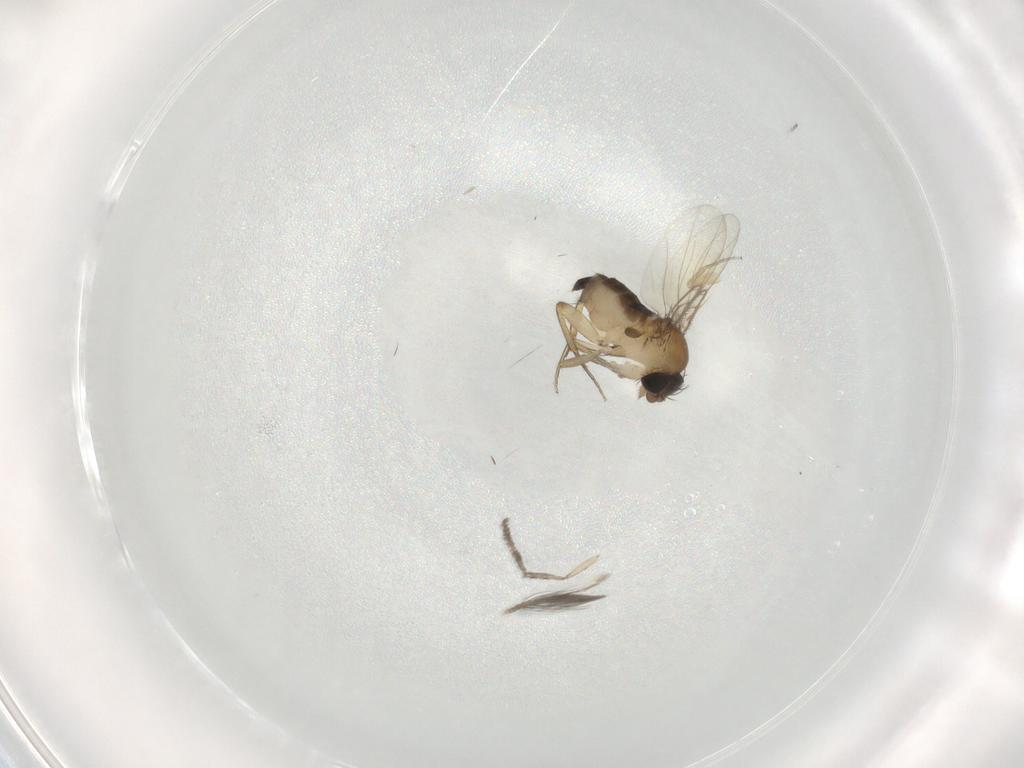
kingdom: Animalia
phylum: Arthropoda
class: Insecta
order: Diptera
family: Phoridae
